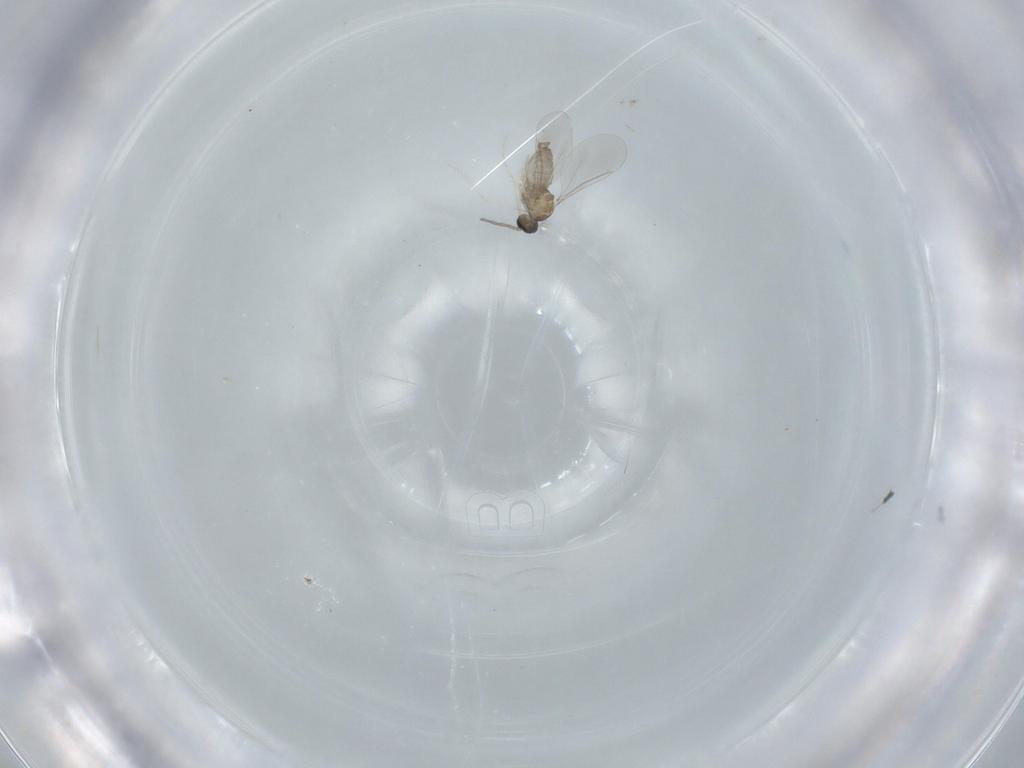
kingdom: Animalia
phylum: Arthropoda
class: Insecta
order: Diptera
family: Cecidomyiidae
